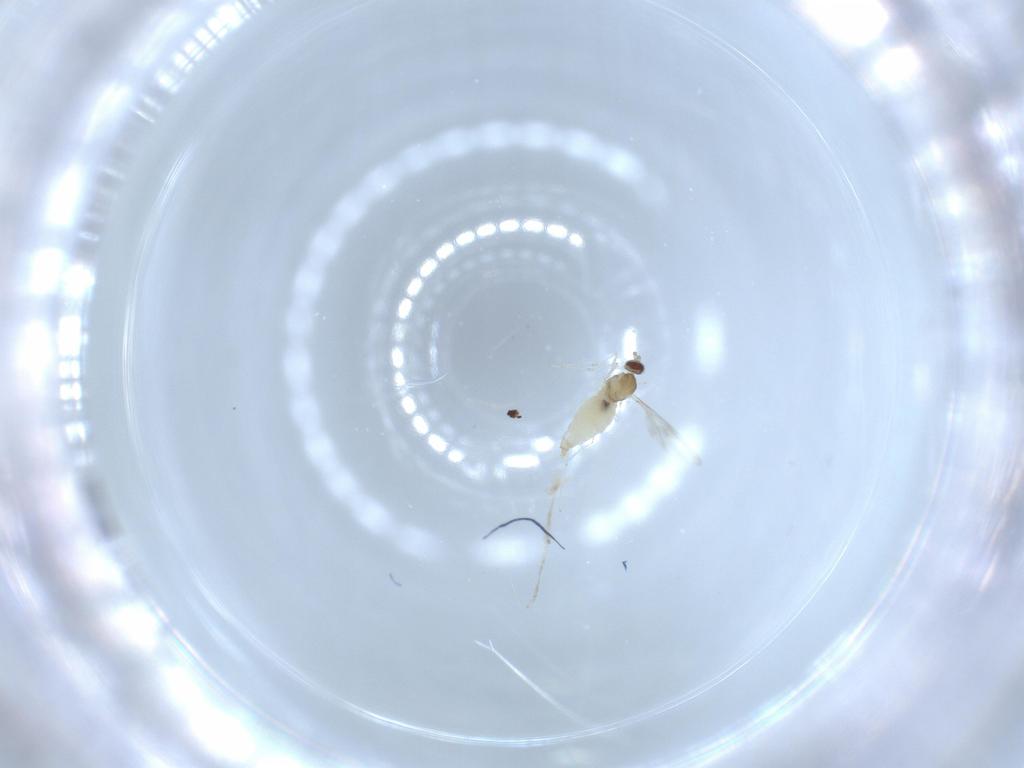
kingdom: Animalia
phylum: Arthropoda
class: Insecta
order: Diptera
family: Cecidomyiidae
